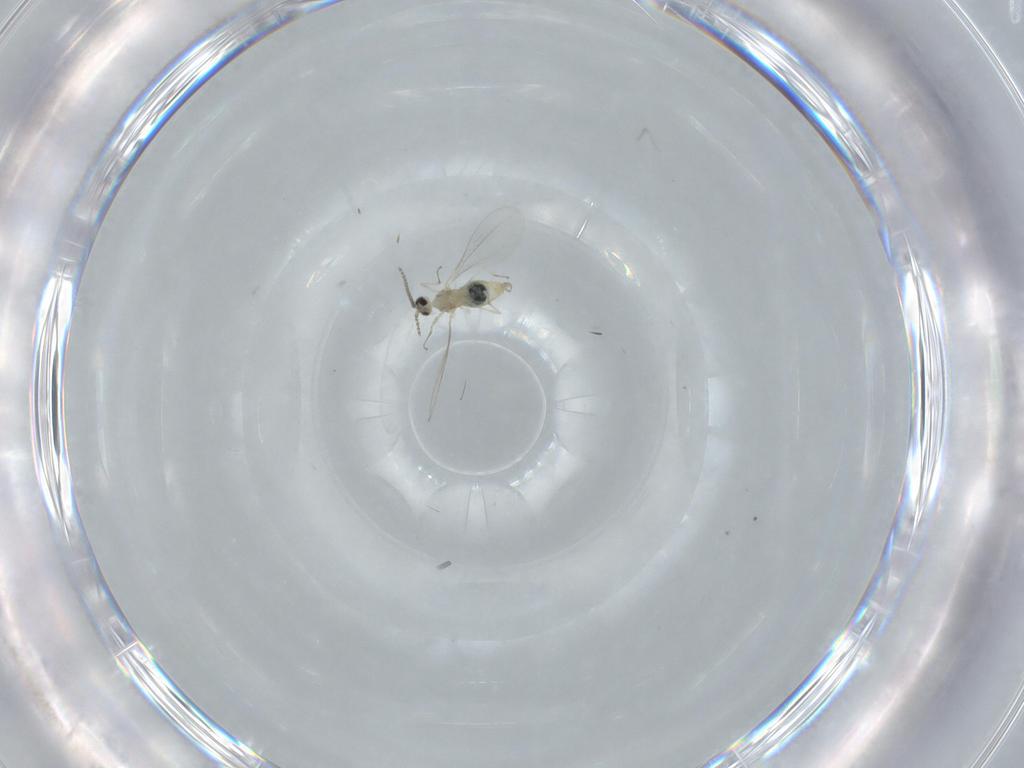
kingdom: Animalia
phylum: Arthropoda
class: Insecta
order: Diptera
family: Cecidomyiidae
